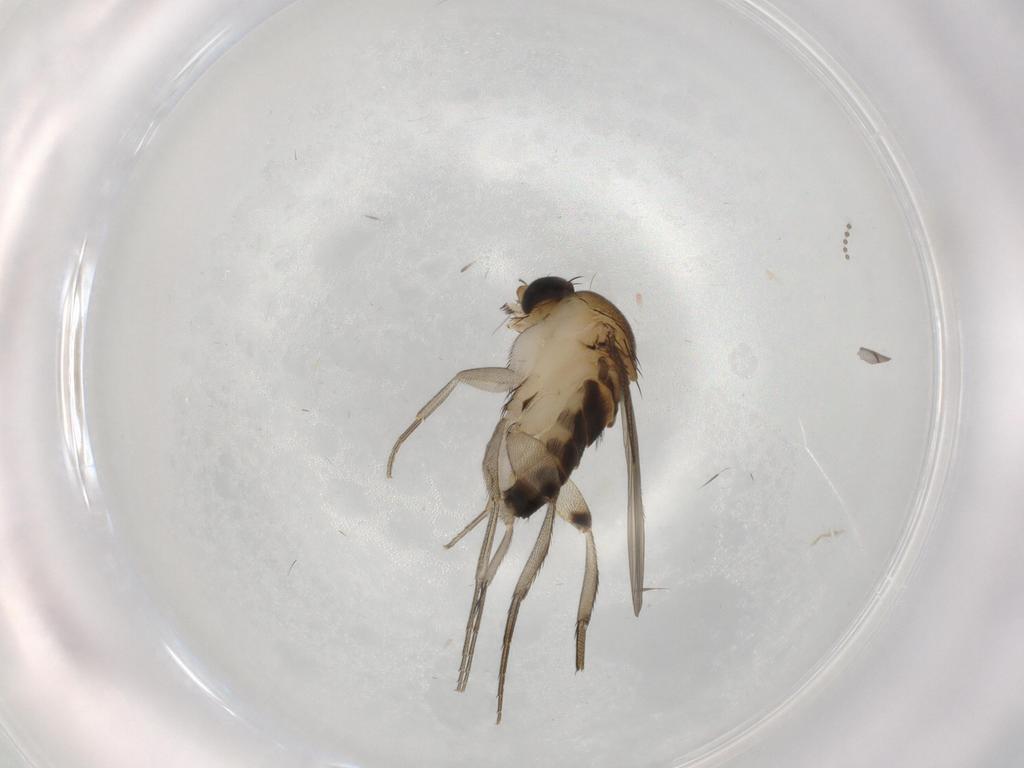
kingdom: Animalia
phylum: Arthropoda
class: Insecta
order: Diptera
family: Phoridae
